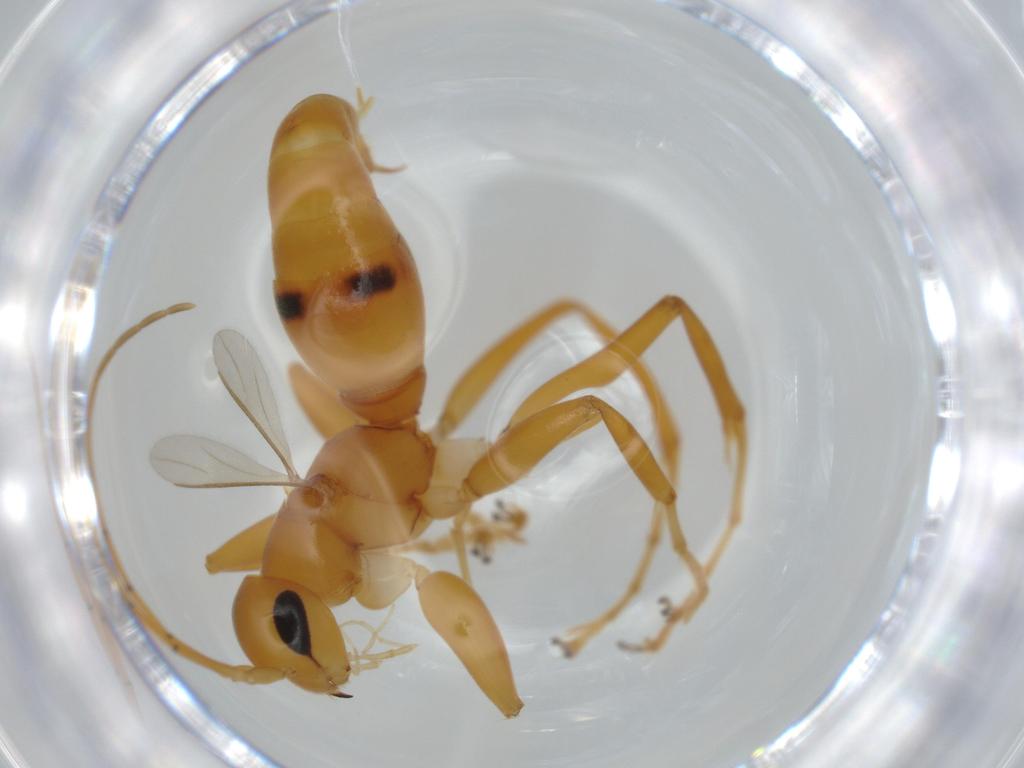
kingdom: Animalia
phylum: Arthropoda
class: Insecta
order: Hymenoptera
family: Rhopalosomatidae
